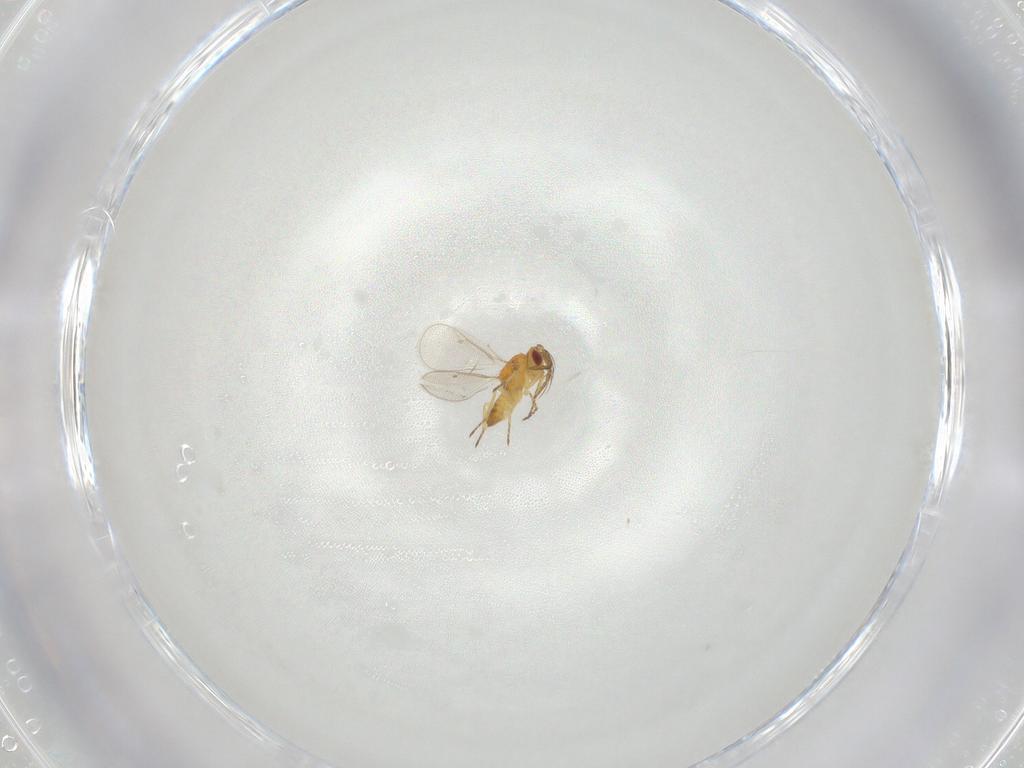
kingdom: Animalia
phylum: Arthropoda
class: Insecta
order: Hymenoptera
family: Eulophidae
